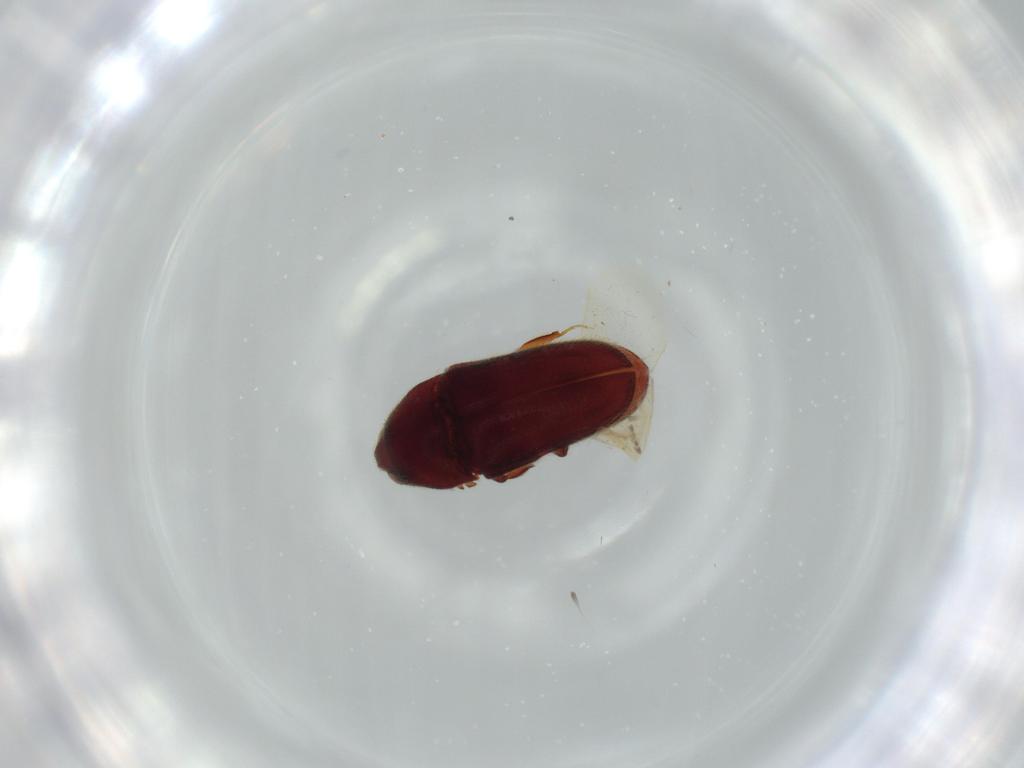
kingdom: Animalia
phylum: Arthropoda
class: Insecta
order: Coleoptera
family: Throscidae
